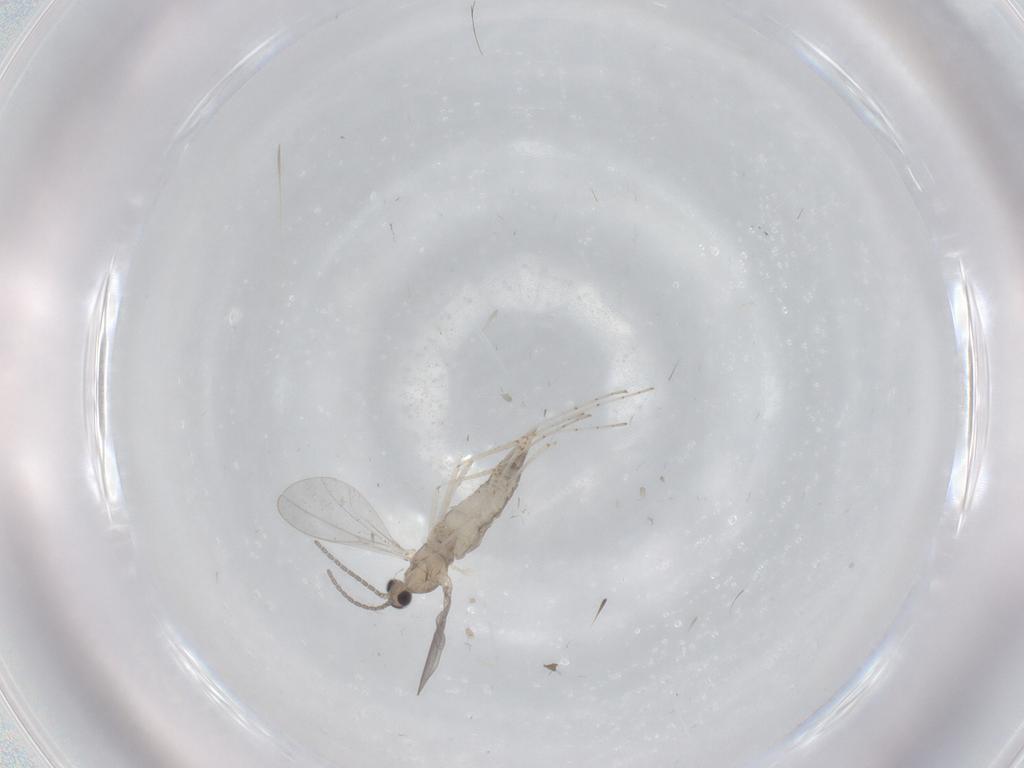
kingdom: Animalia
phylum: Arthropoda
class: Insecta
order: Diptera
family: Cecidomyiidae
